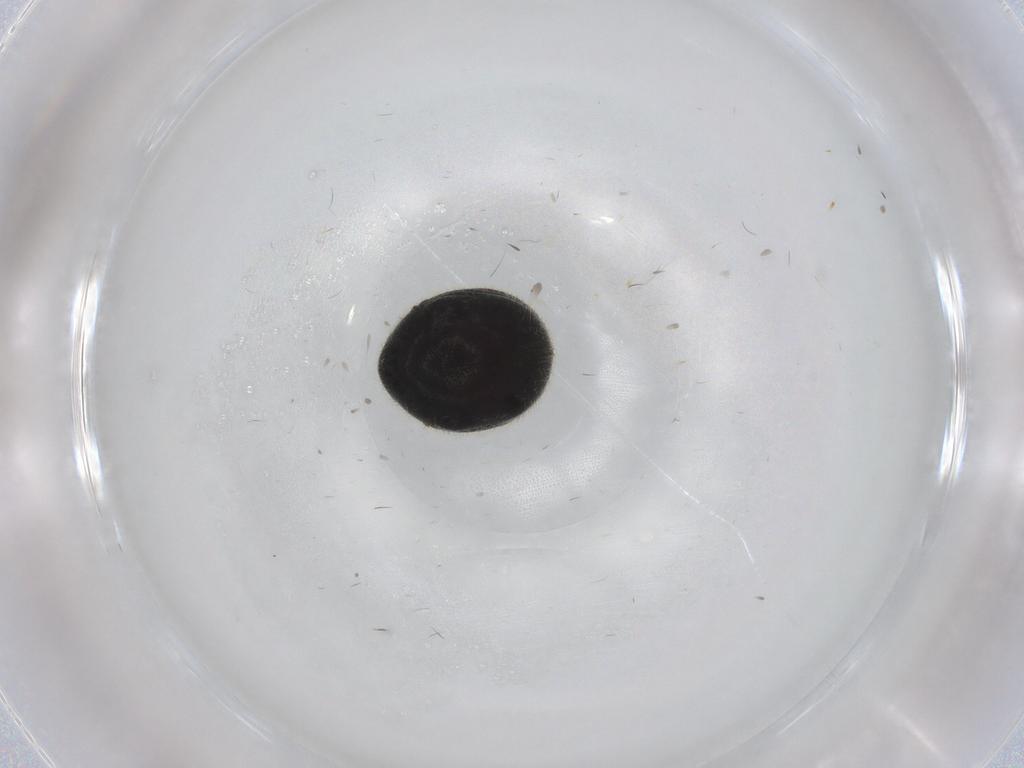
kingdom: Animalia
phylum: Arthropoda
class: Insecta
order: Coleoptera
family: Ptinidae
